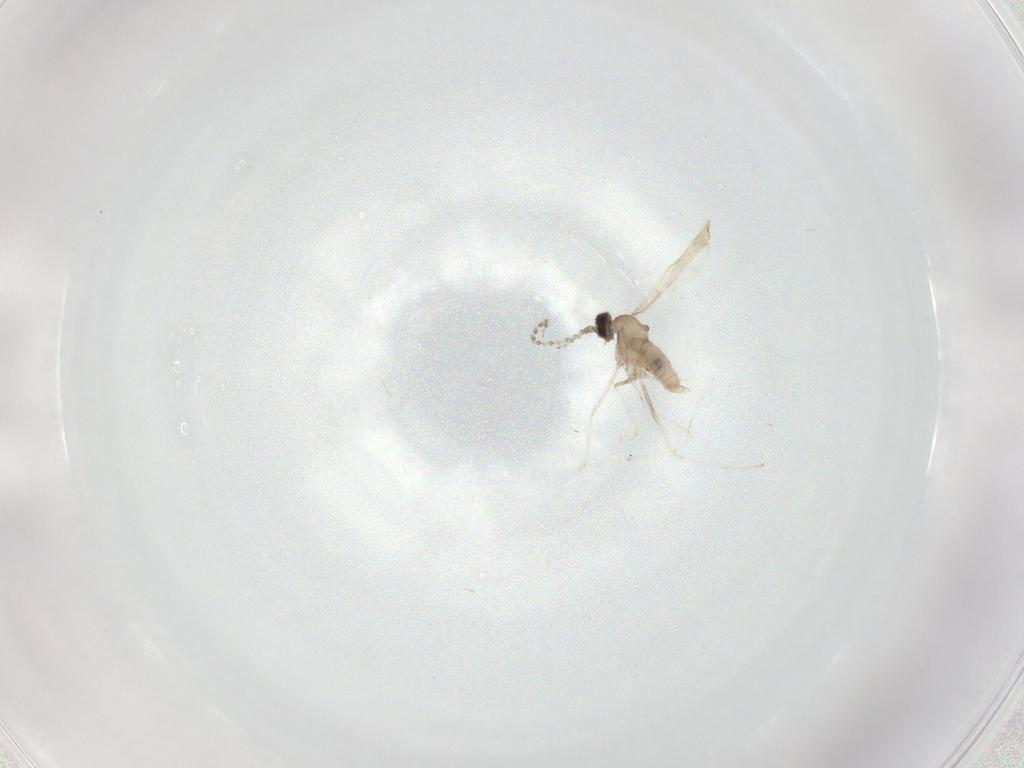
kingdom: Animalia
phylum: Arthropoda
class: Insecta
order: Diptera
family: Cecidomyiidae
